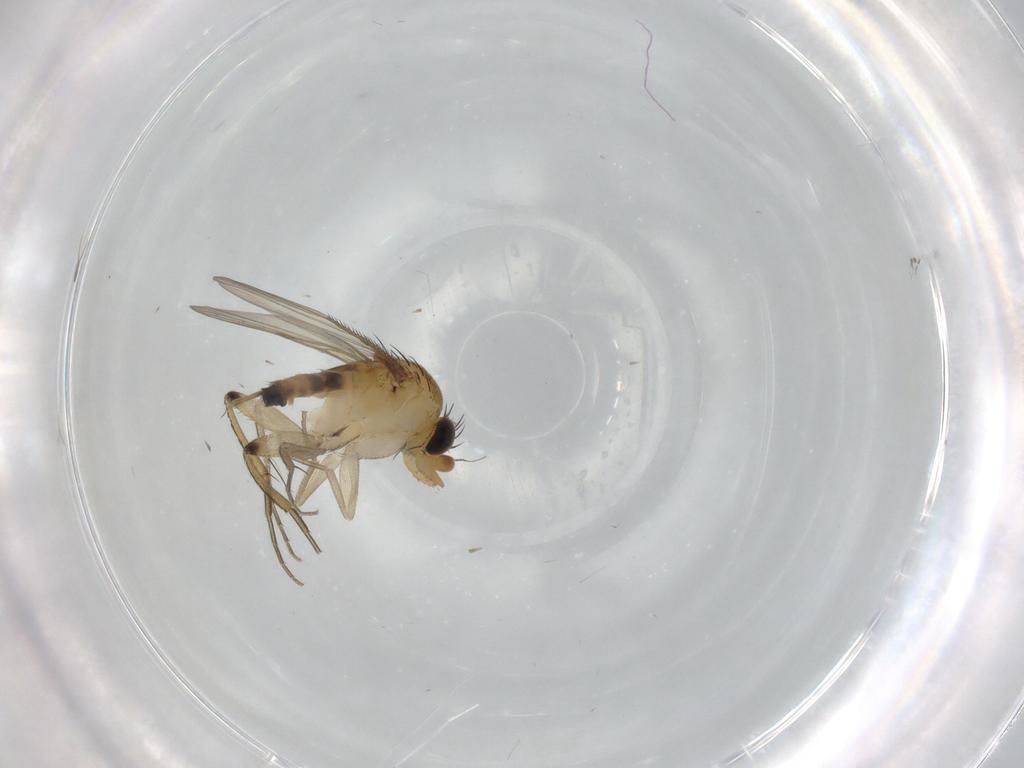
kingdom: Animalia
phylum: Arthropoda
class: Insecta
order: Diptera
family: Phoridae
